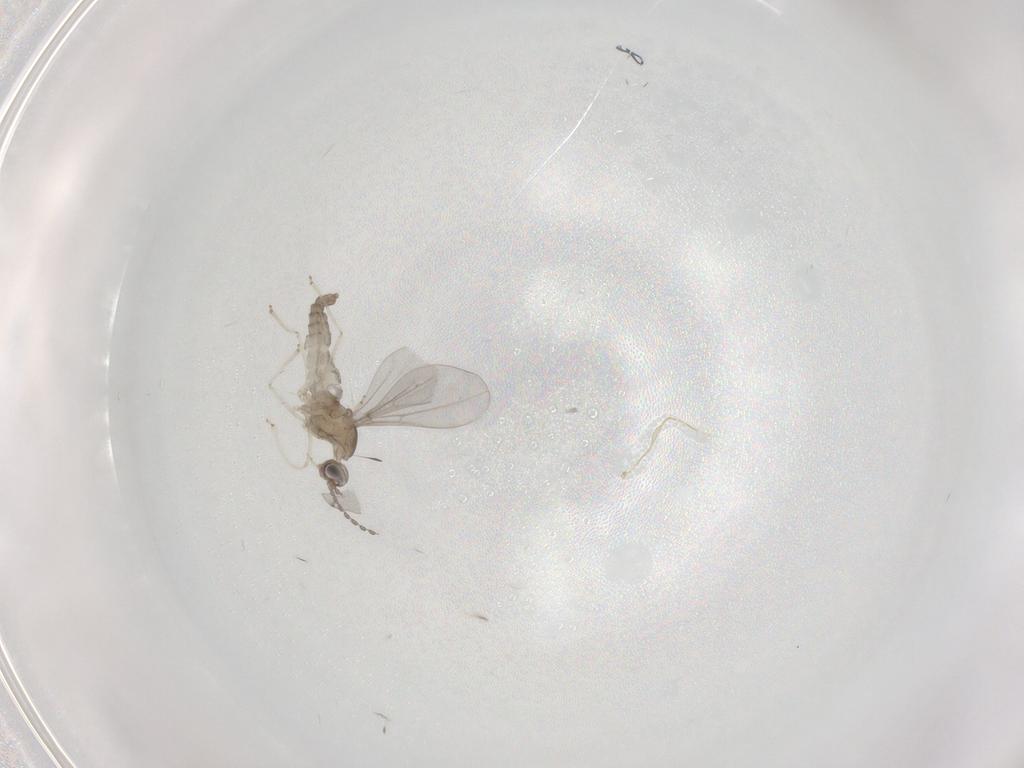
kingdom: Animalia
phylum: Arthropoda
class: Insecta
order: Diptera
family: Cecidomyiidae
